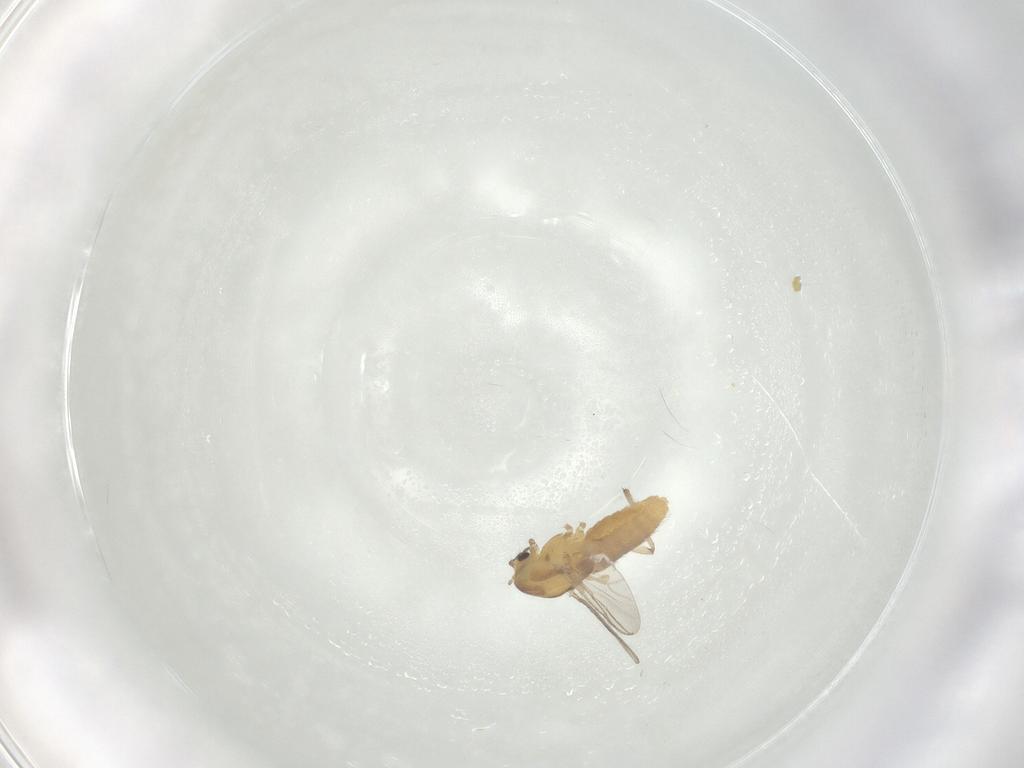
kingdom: Animalia
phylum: Arthropoda
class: Insecta
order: Diptera
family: Chironomidae
